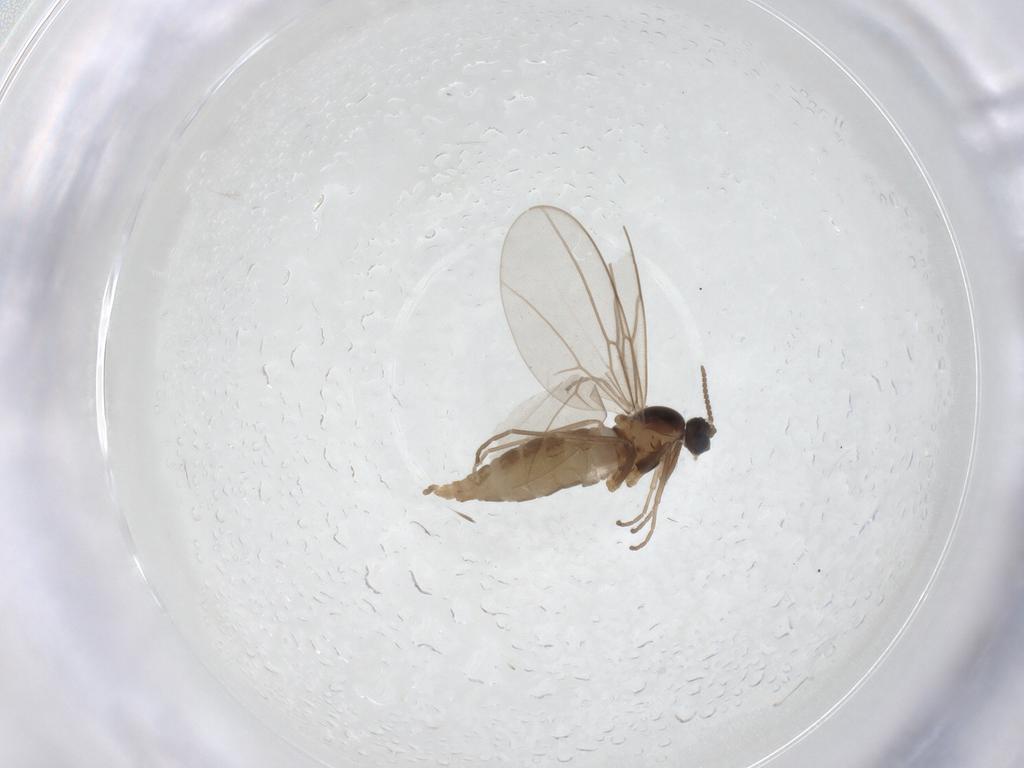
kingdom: Animalia
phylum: Arthropoda
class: Insecta
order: Diptera
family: Cecidomyiidae
